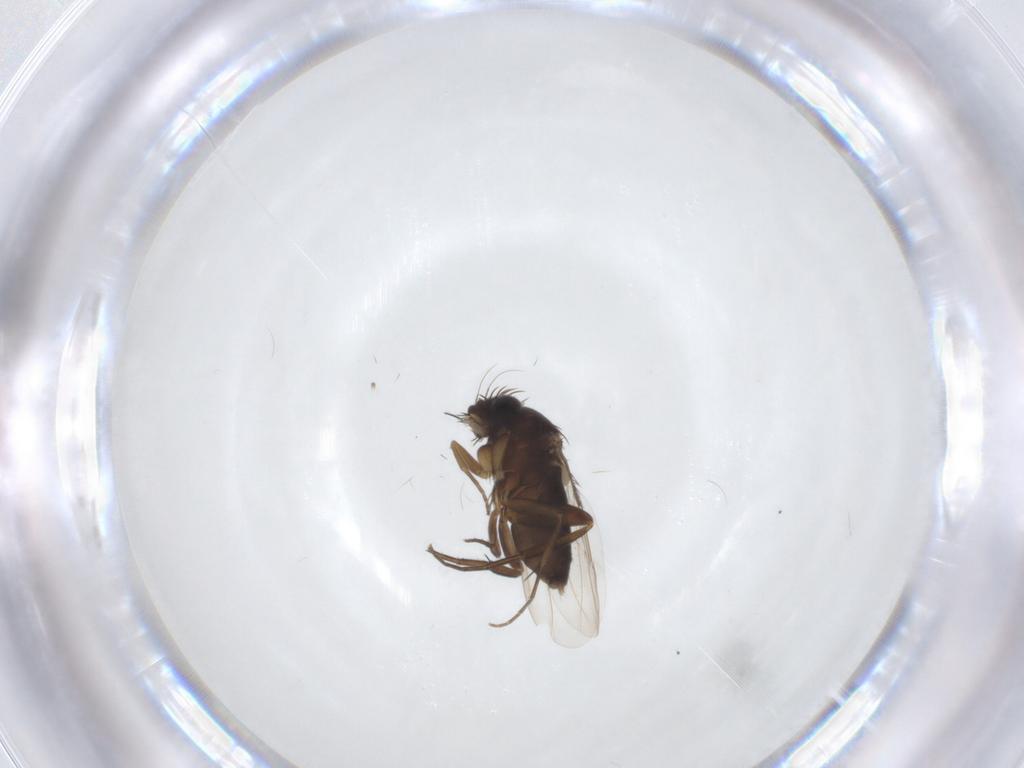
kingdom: Animalia
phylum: Arthropoda
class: Insecta
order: Diptera
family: Phoridae
